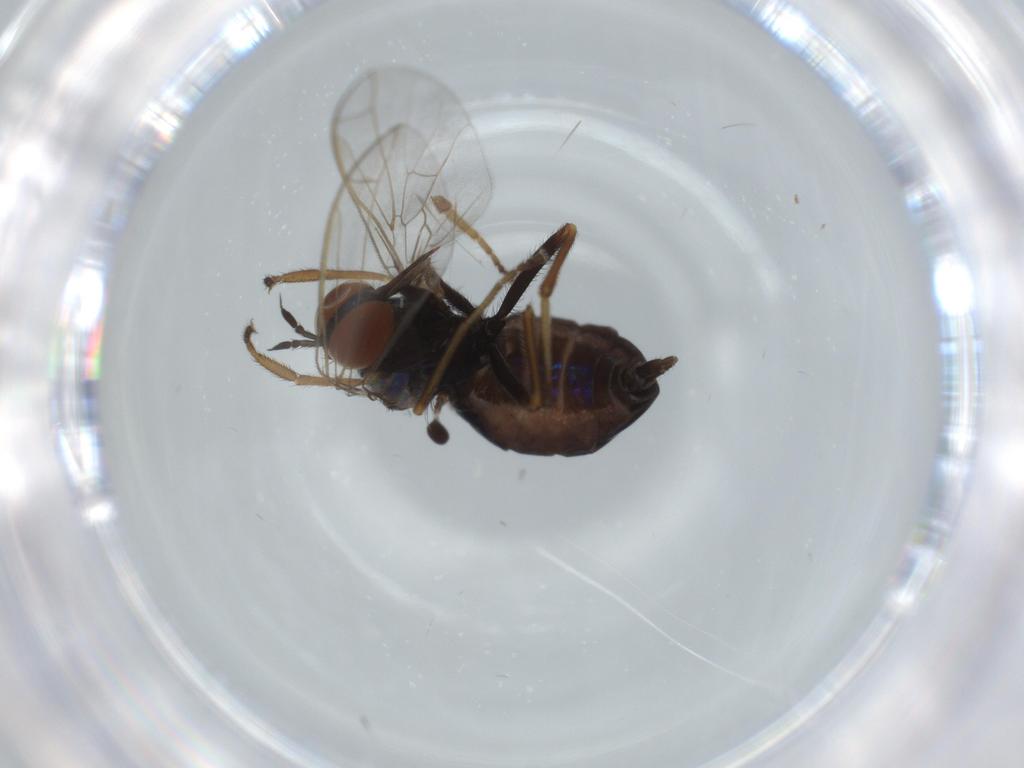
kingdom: Animalia
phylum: Arthropoda
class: Insecta
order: Diptera
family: Empididae
